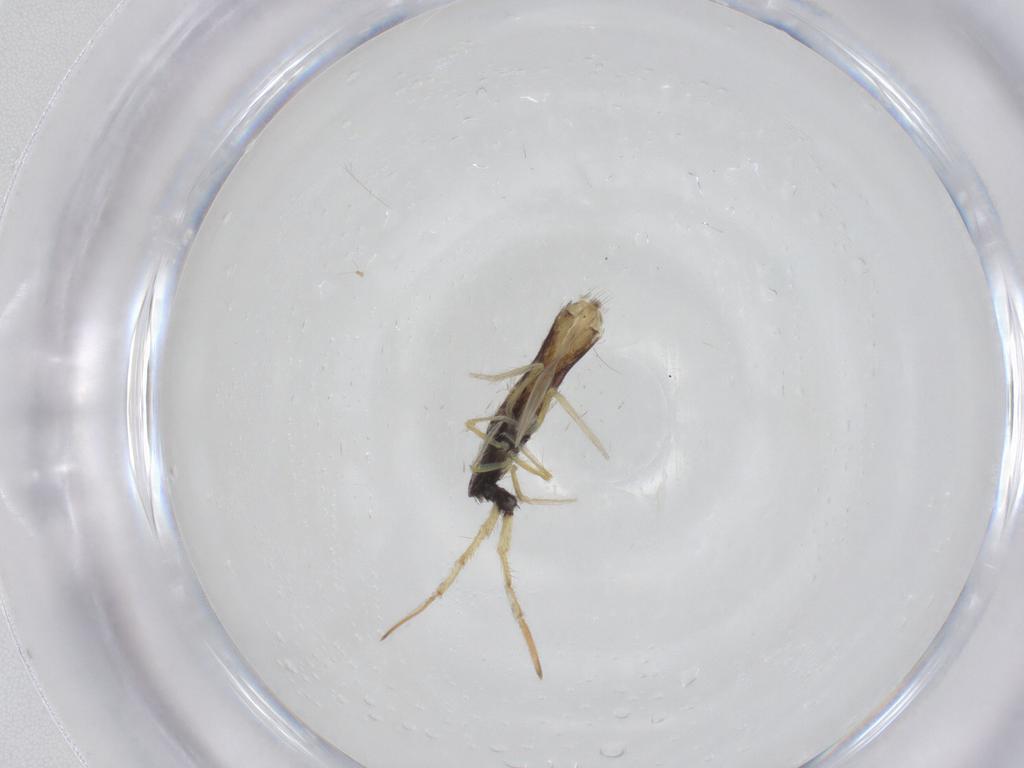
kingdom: Animalia
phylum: Arthropoda
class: Collembola
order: Entomobryomorpha
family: Entomobryidae
